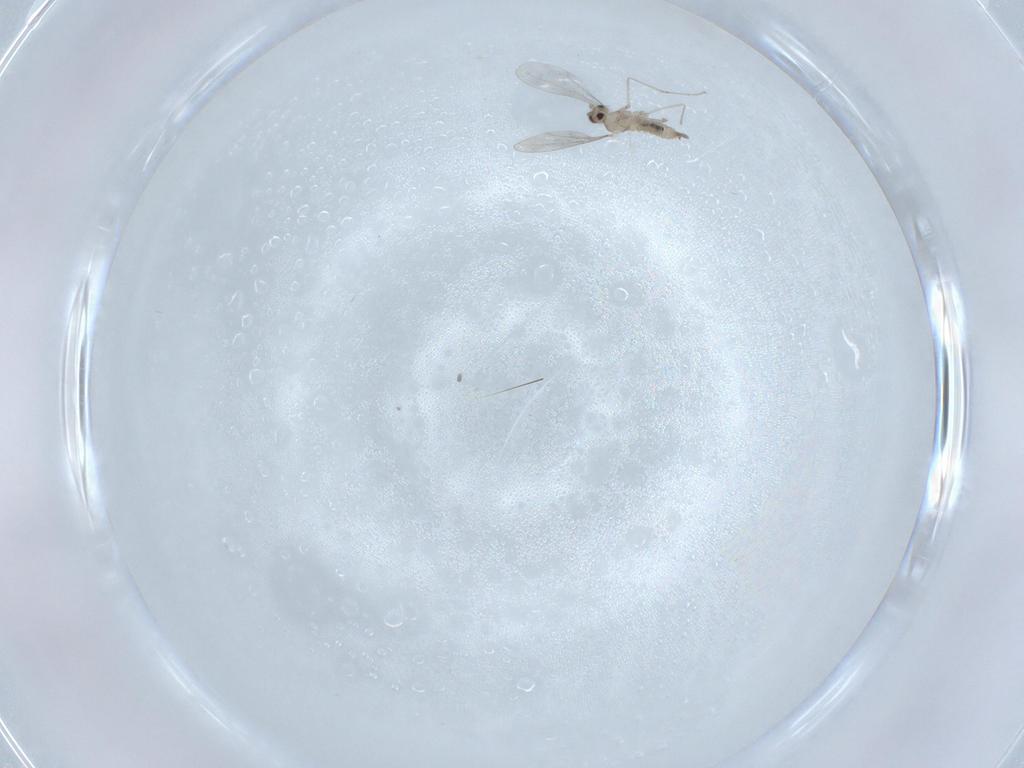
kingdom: Animalia
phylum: Arthropoda
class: Insecta
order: Diptera
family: Sciaridae
